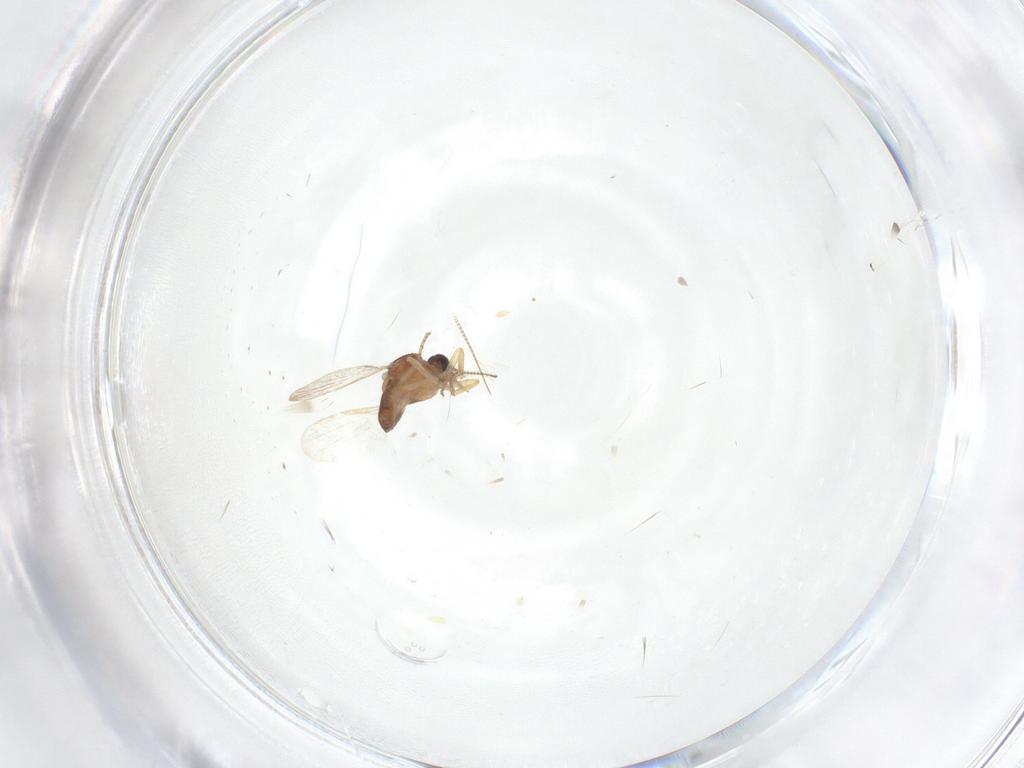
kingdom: Animalia
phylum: Arthropoda
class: Insecta
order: Diptera
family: Ceratopogonidae
